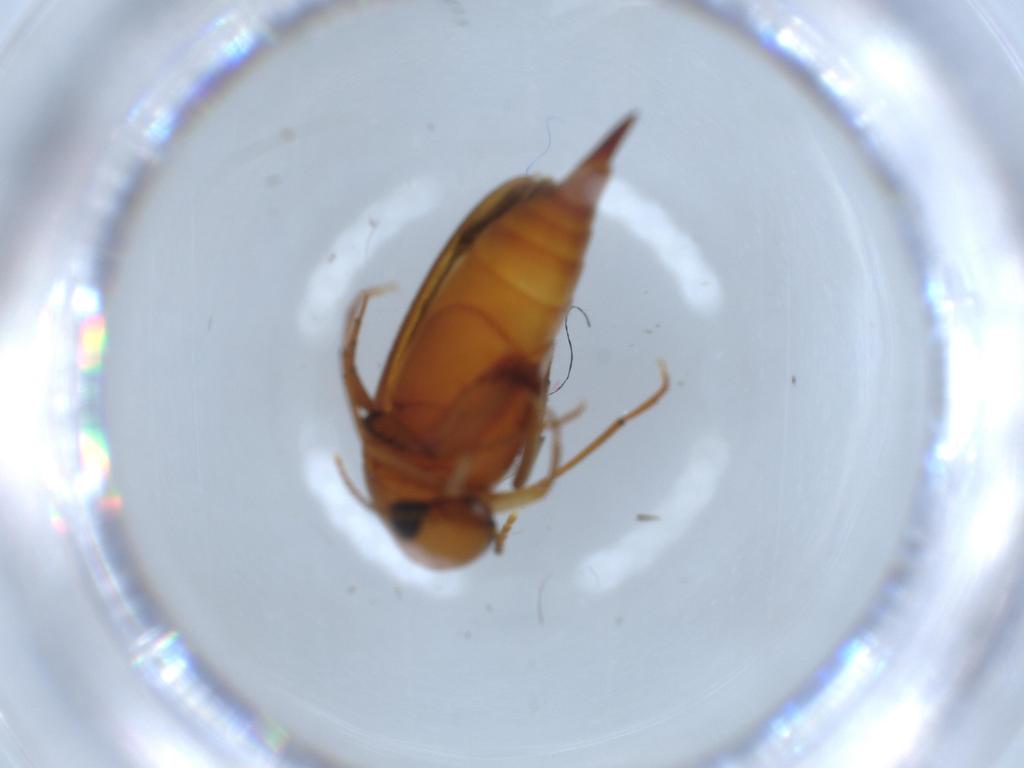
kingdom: Animalia
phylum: Arthropoda
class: Insecta
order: Coleoptera
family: Mordellidae
